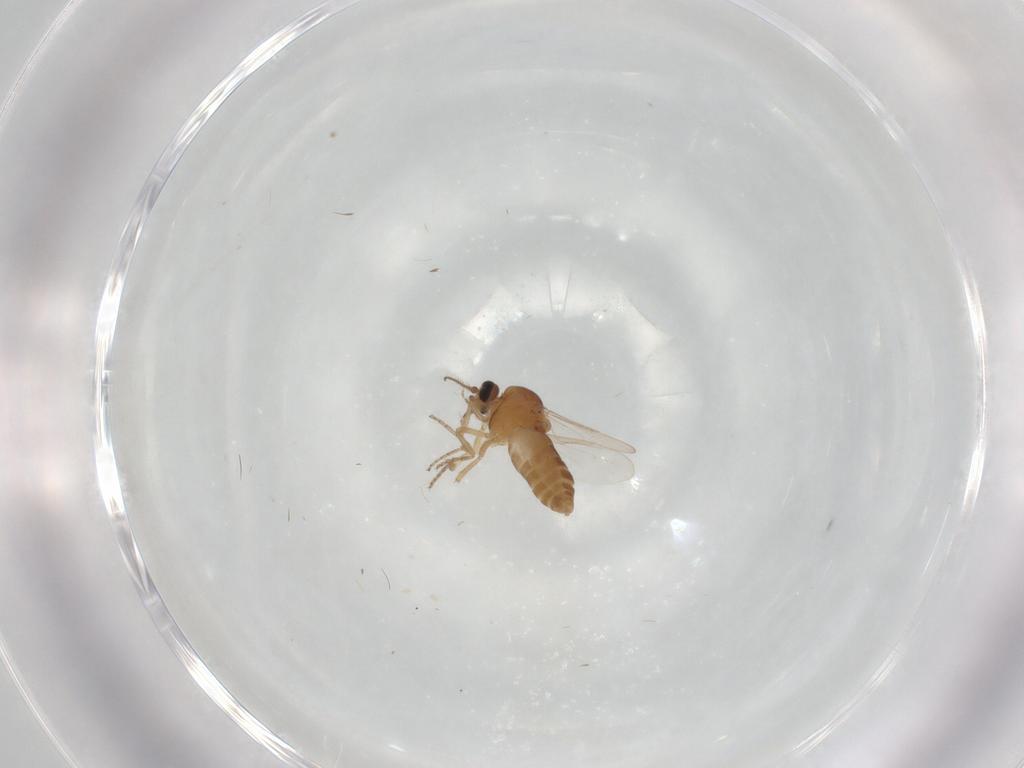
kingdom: Animalia
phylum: Arthropoda
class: Insecta
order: Diptera
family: Ceratopogonidae
